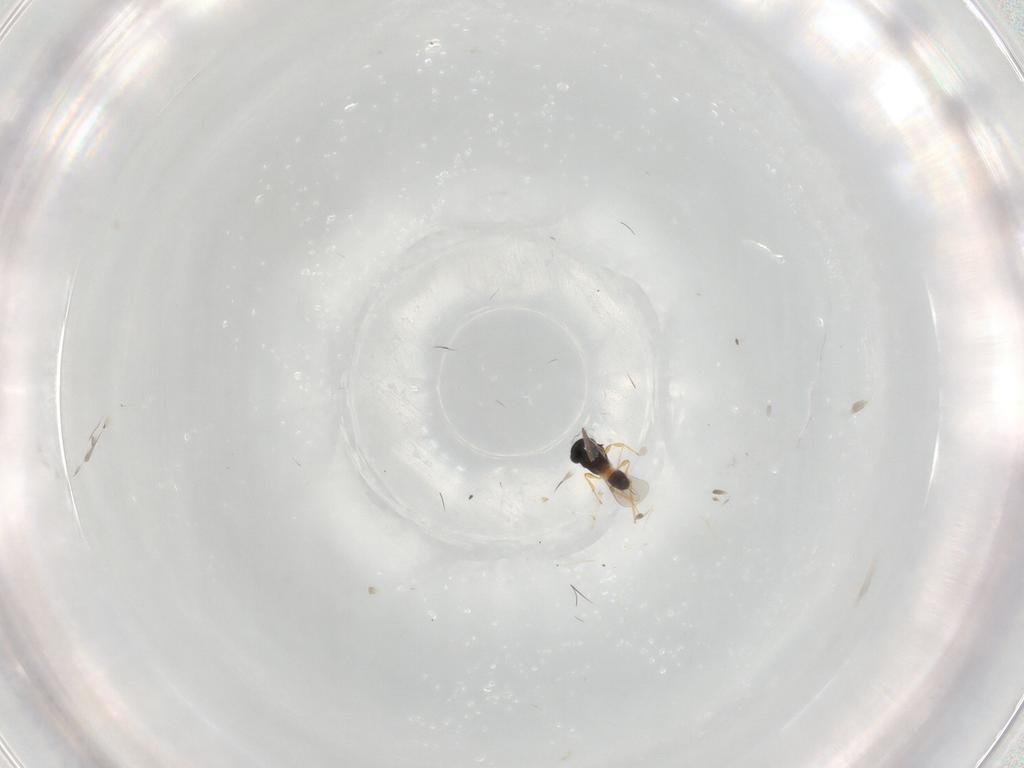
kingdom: Animalia
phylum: Arthropoda
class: Insecta
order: Hymenoptera
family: Platygastridae
